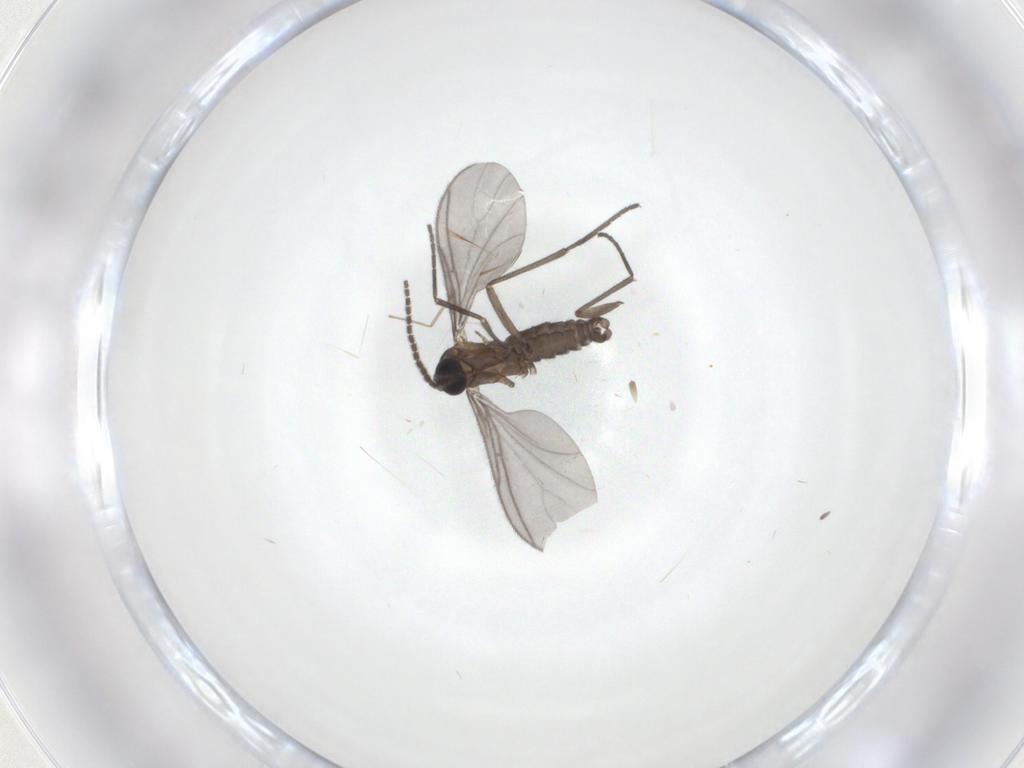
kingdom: Animalia
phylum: Arthropoda
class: Insecta
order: Diptera
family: Sciaridae
